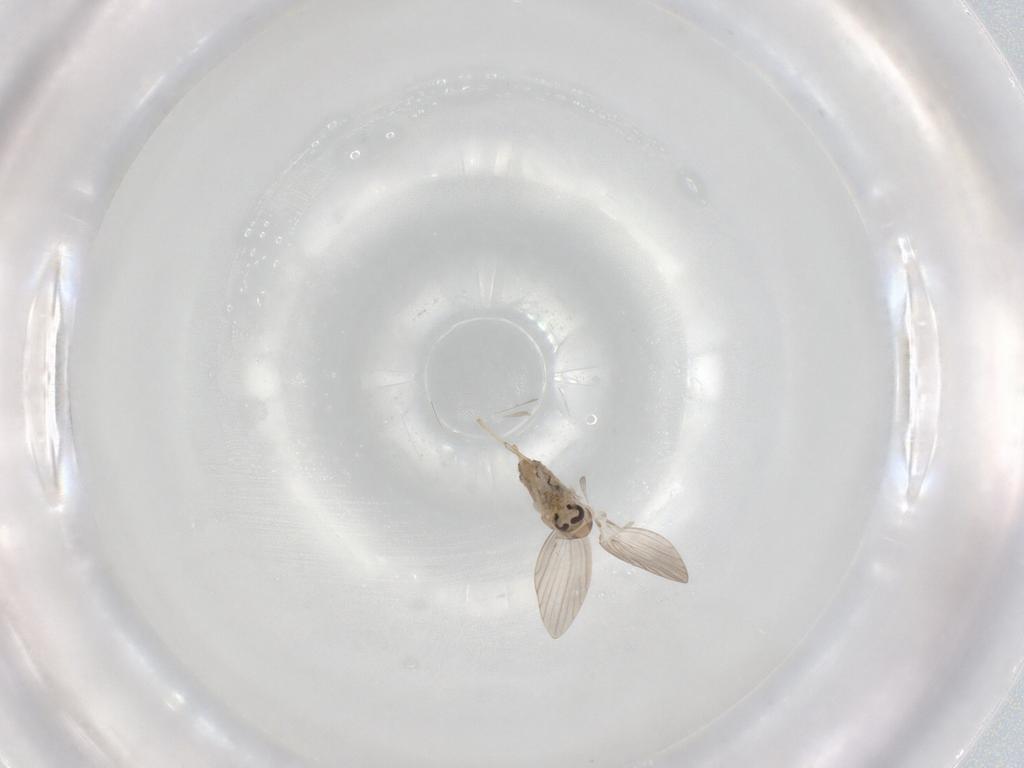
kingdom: Animalia
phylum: Arthropoda
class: Insecta
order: Diptera
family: Psychodidae
